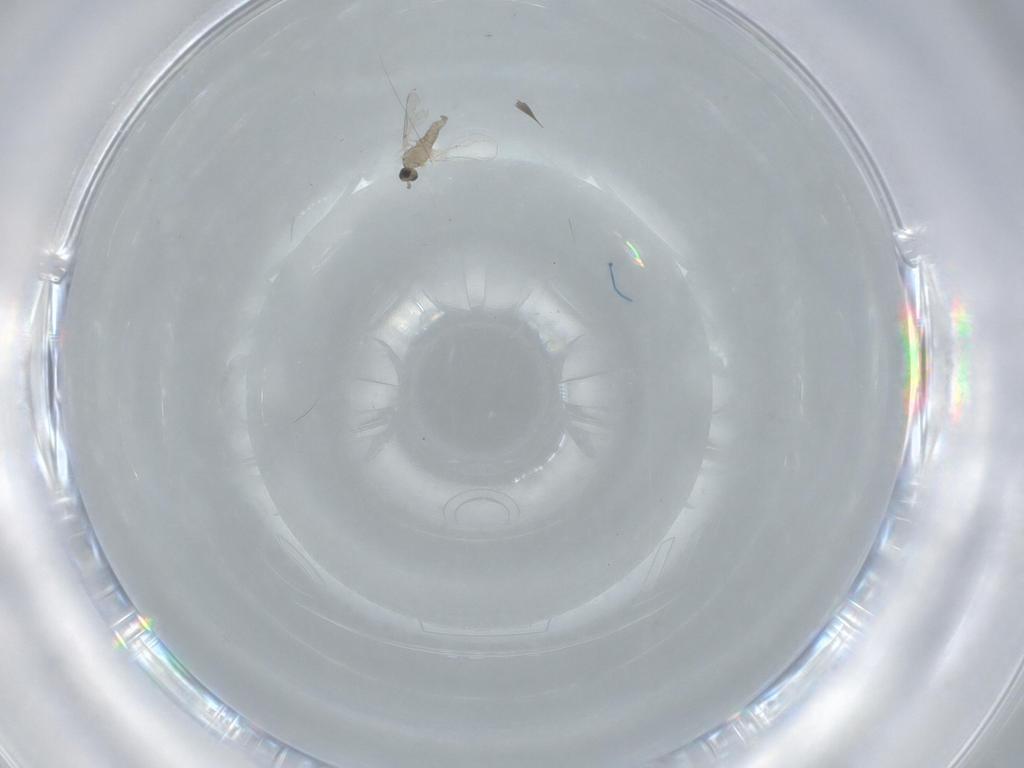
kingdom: Animalia
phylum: Arthropoda
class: Insecta
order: Diptera
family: Cecidomyiidae
